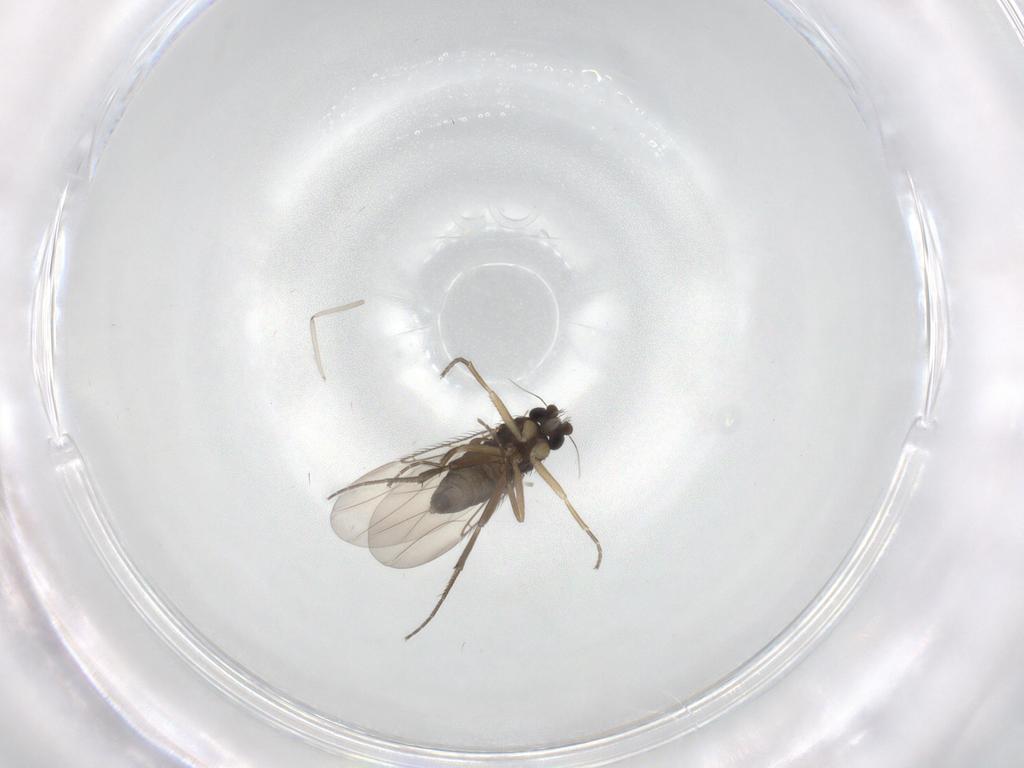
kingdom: Animalia
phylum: Arthropoda
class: Insecta
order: Diptera
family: Phoridae
